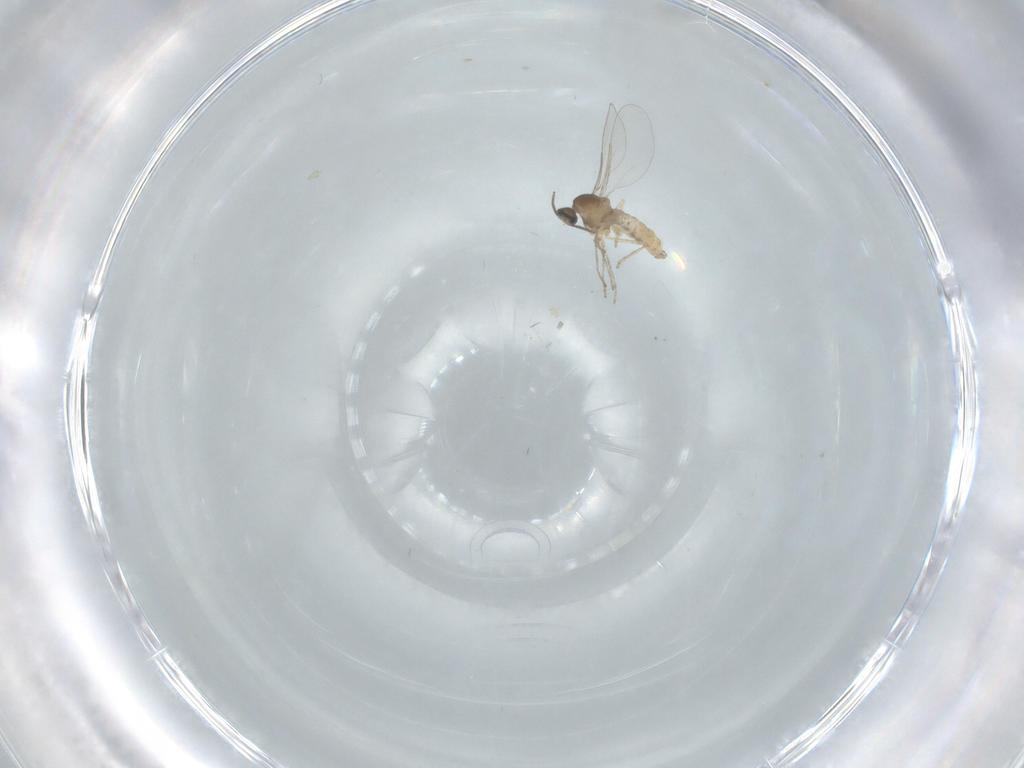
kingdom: Animalia
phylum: Arthropoda
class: Insecta
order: Diptera
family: Cecidomyiidae
